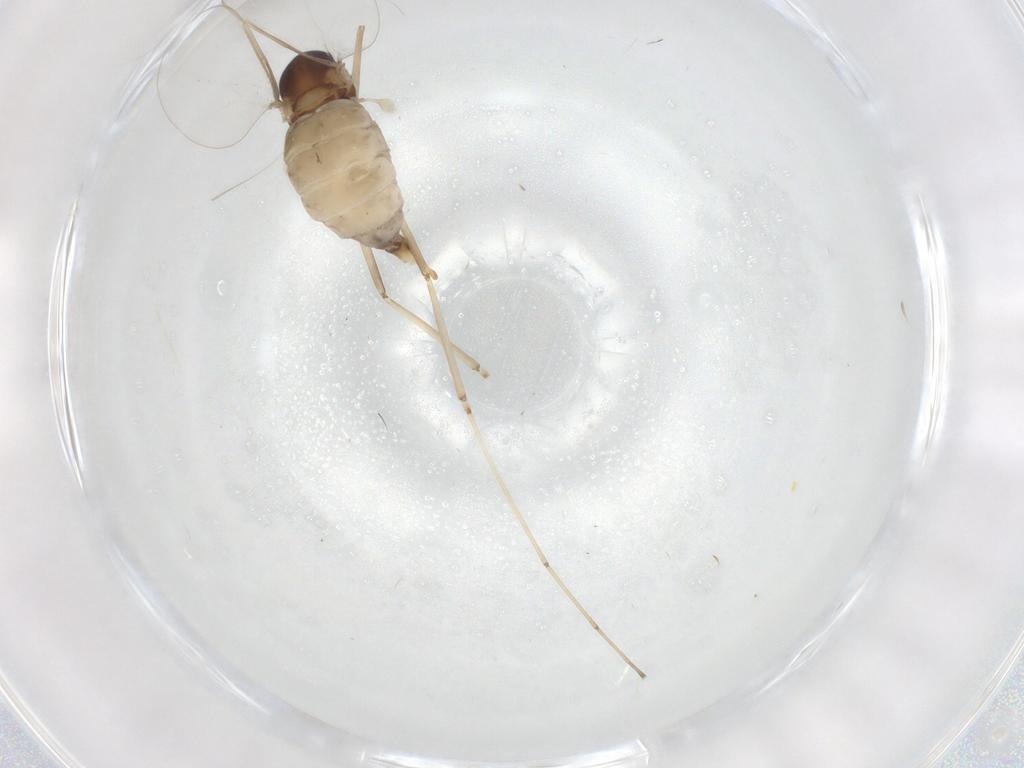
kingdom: Animalia
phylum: Arthropoda
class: Insecta
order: Diptera
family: Cecidomyiidae
